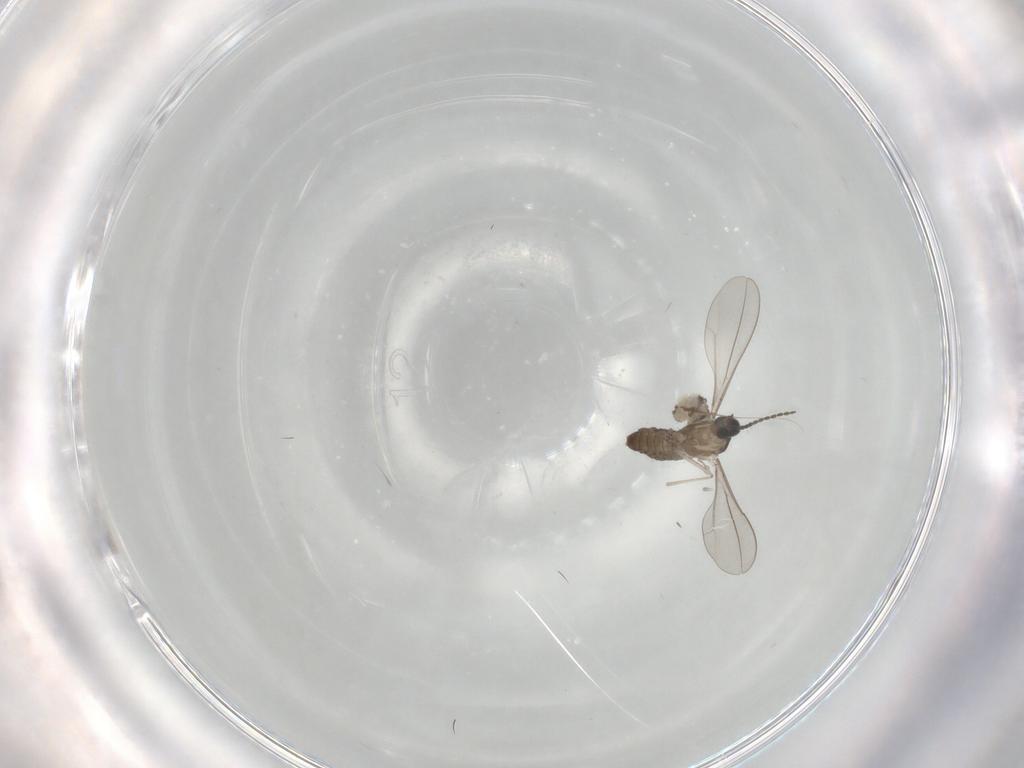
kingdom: Animalia
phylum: Arthropoda
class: Insecta
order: Diptera
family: Cecidomyiidae
